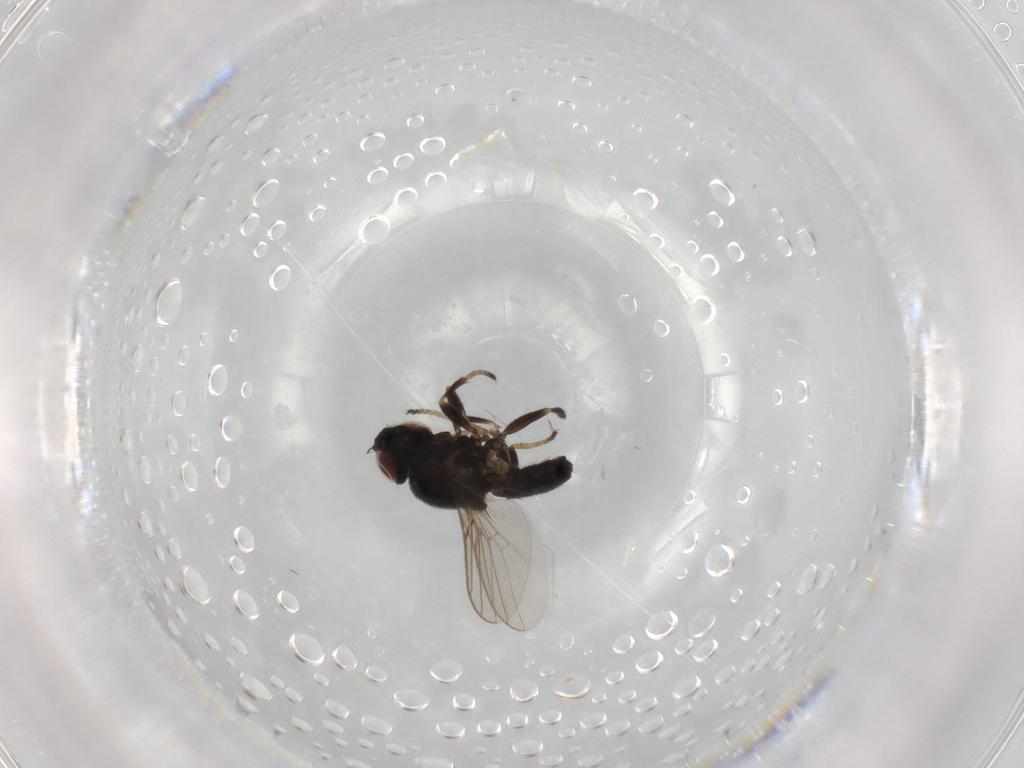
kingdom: Animalia
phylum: Arthropoda
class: Insecta
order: Diptera
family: Chloropidae
